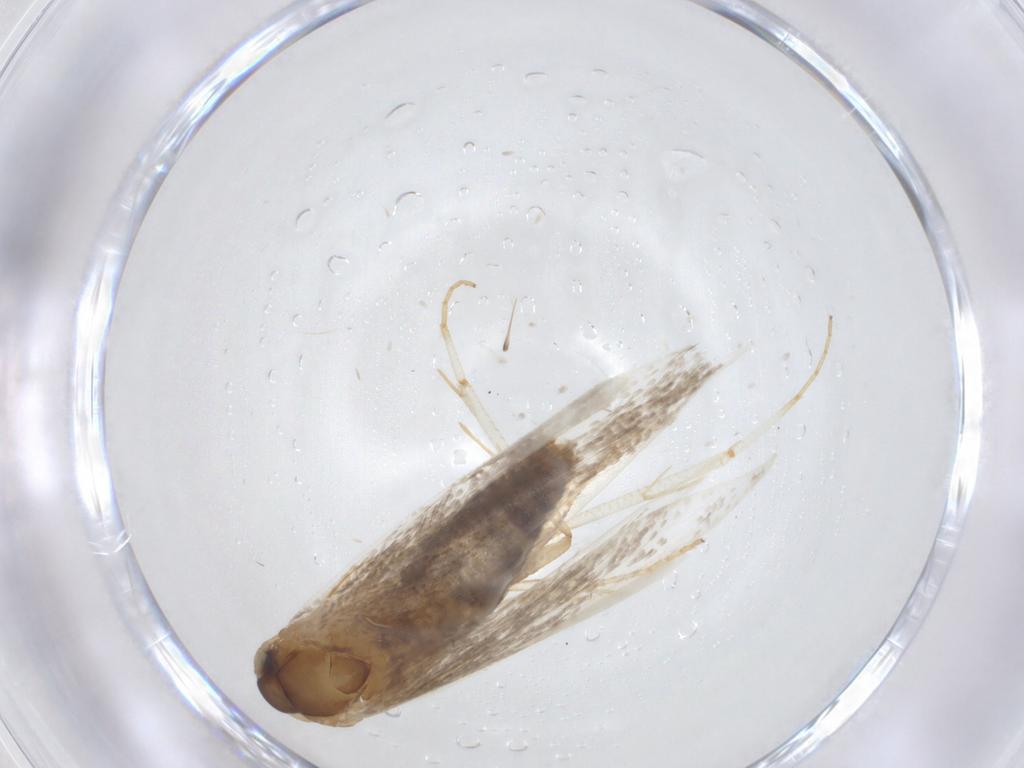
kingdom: Animalia
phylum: Arthropoda
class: Insecta
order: Lepidoptera
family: Blastobasidae
